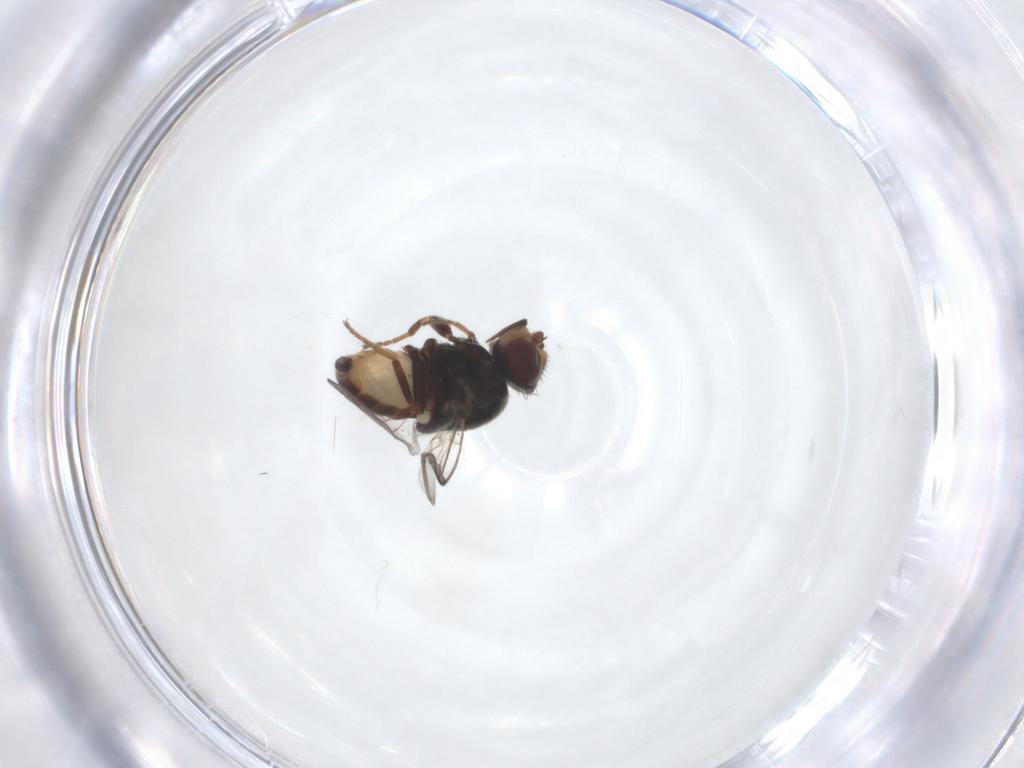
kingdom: Animalia
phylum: Arthropoda
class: Insecta
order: Diptera
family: Chloropidae
